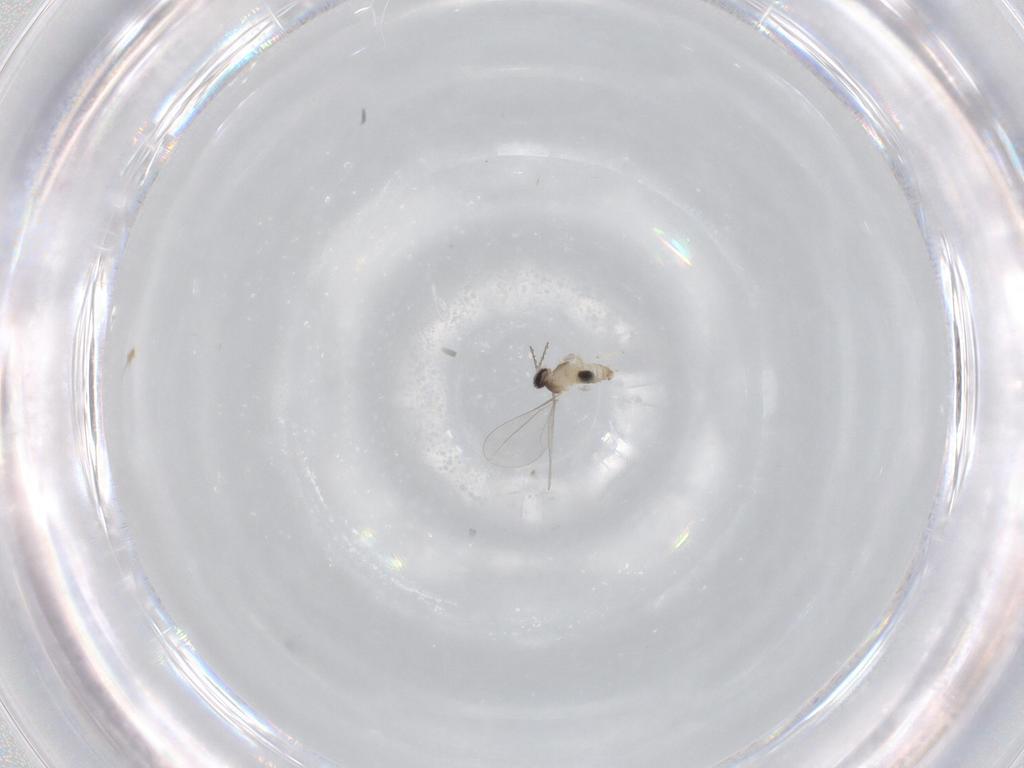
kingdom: Animalia
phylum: Arthropoda
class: Insecta
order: Diptera
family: Cecidomyiidae
